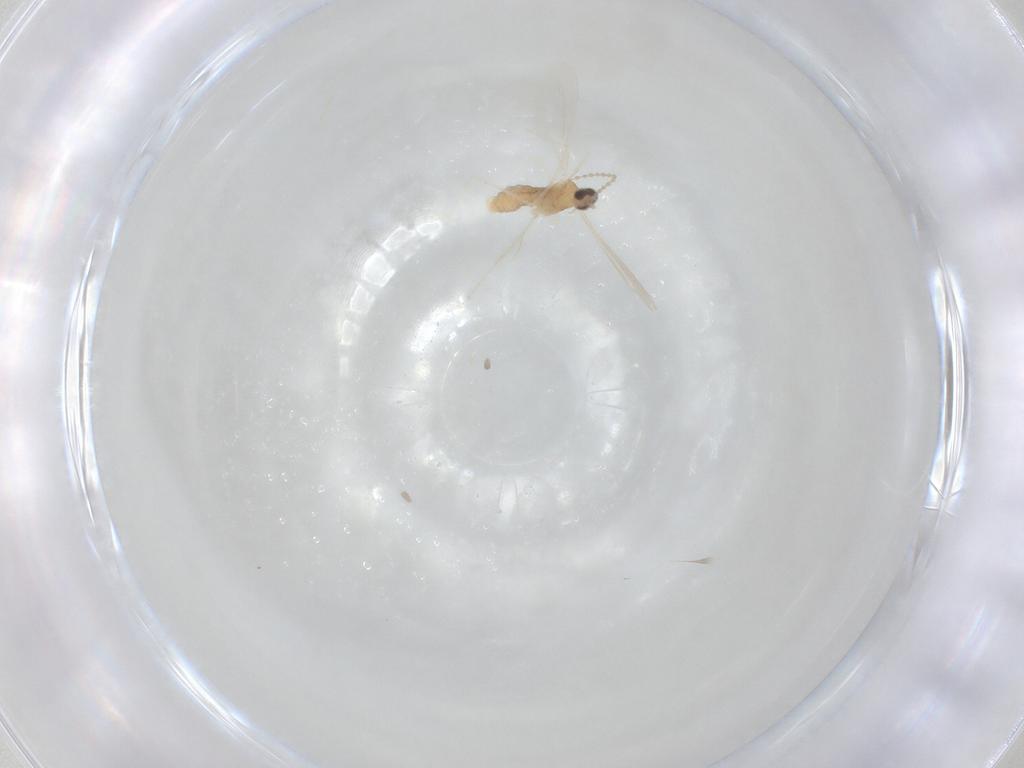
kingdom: Animalia
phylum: Arthropoda
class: Insecta
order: Diptera
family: Cecidomyiidae
